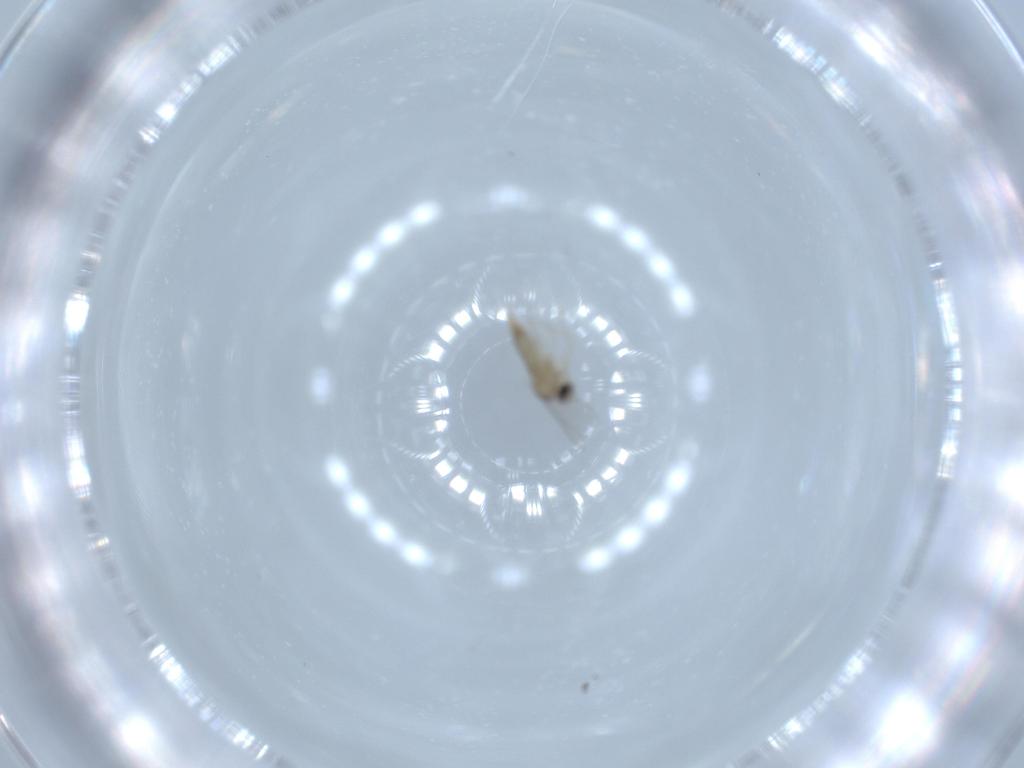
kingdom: Animalia
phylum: Arthropoda
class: Insecta
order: Diptera
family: Cecidomyiidae
